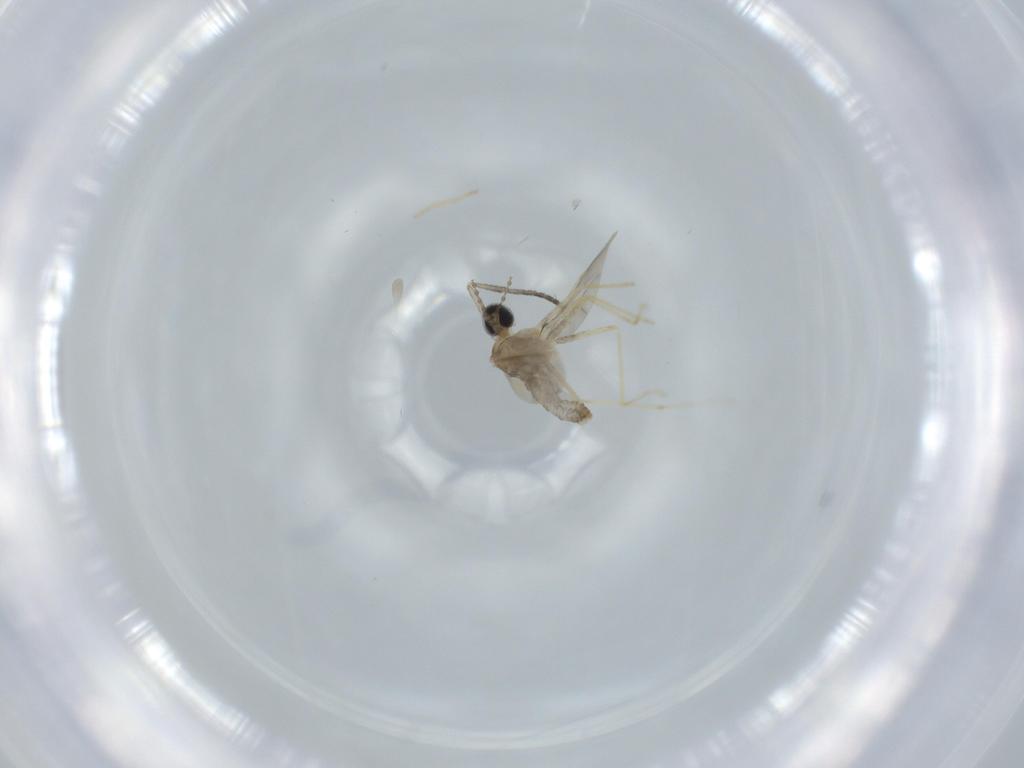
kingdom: Animalia
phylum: Arthropoda
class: Insecta
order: Diptera
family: Cecidomyiidae
